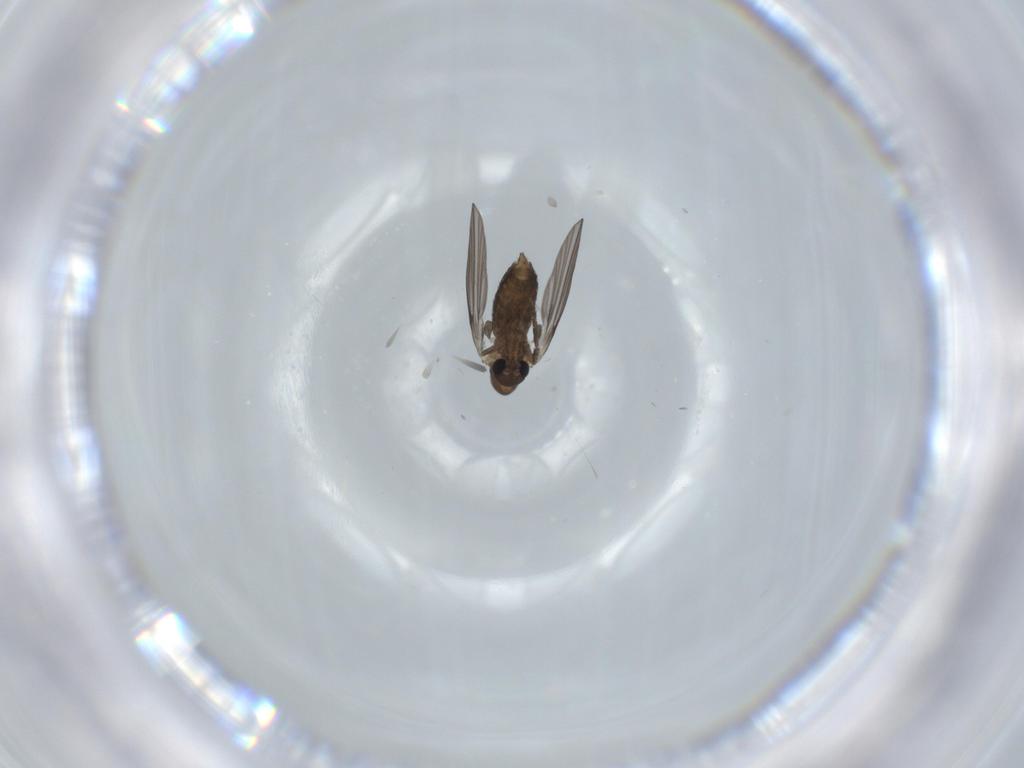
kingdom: Animalia
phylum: Arthropoda
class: Insecta
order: Diptera
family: Psychodidae
